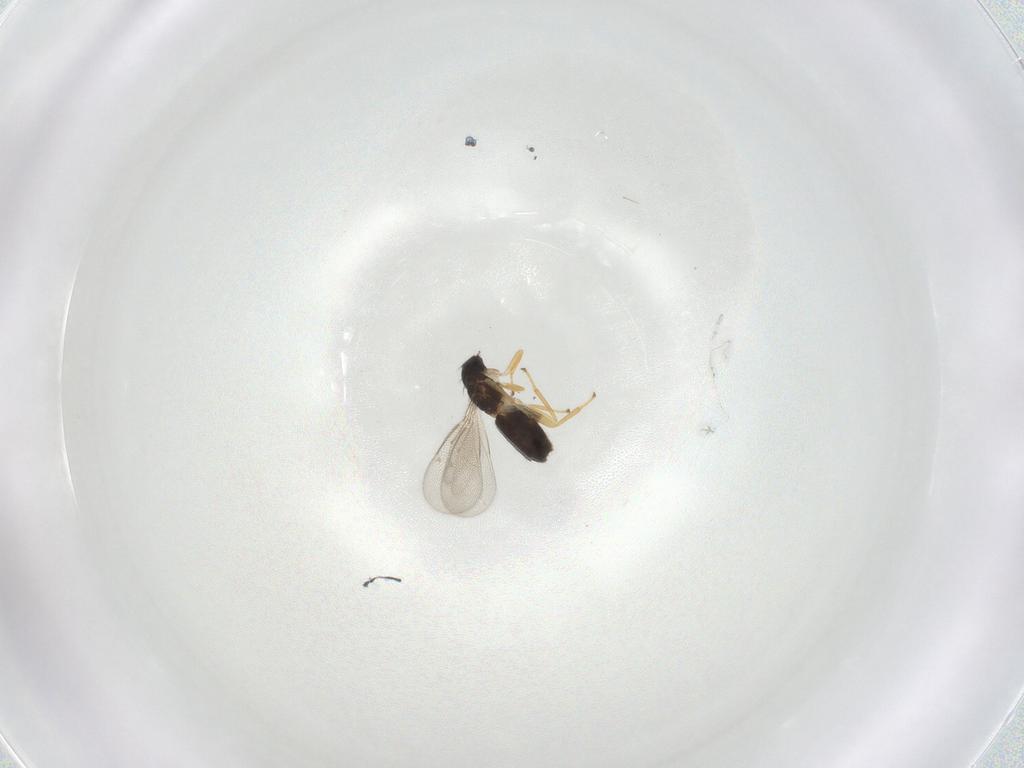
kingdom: Animalia
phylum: Arthropoda
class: Insecta
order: Hymenoptera
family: Eulophidae
